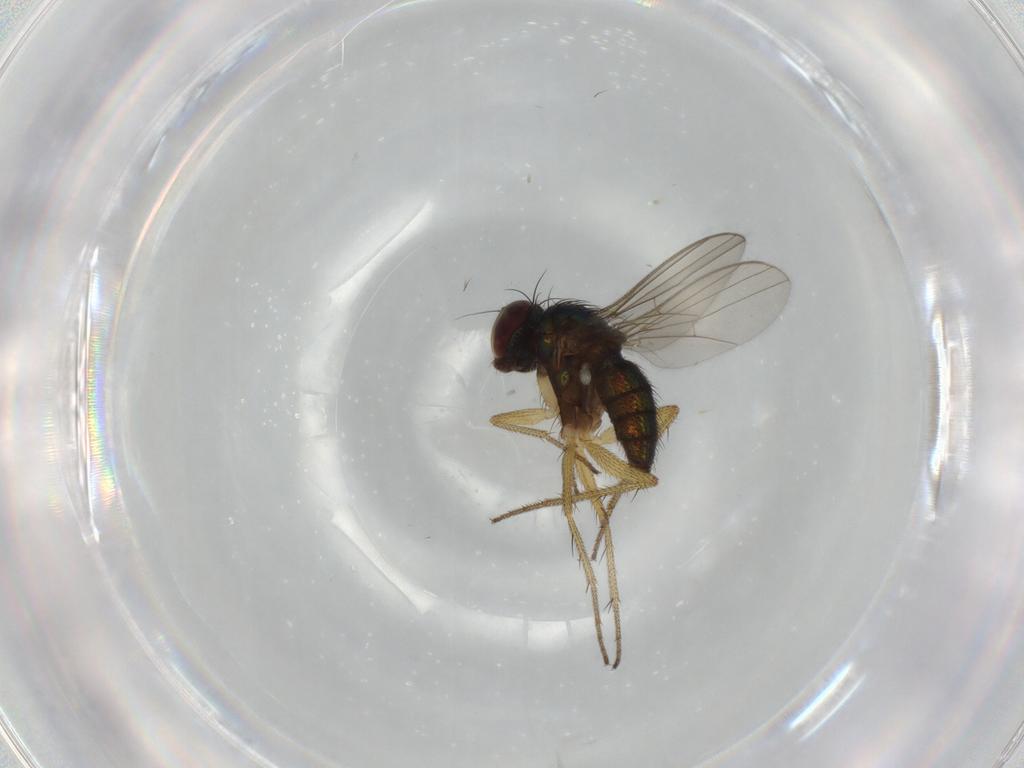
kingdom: Animalia
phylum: Arthropoda
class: Insecta
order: Diptera
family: Dolichopodidae
